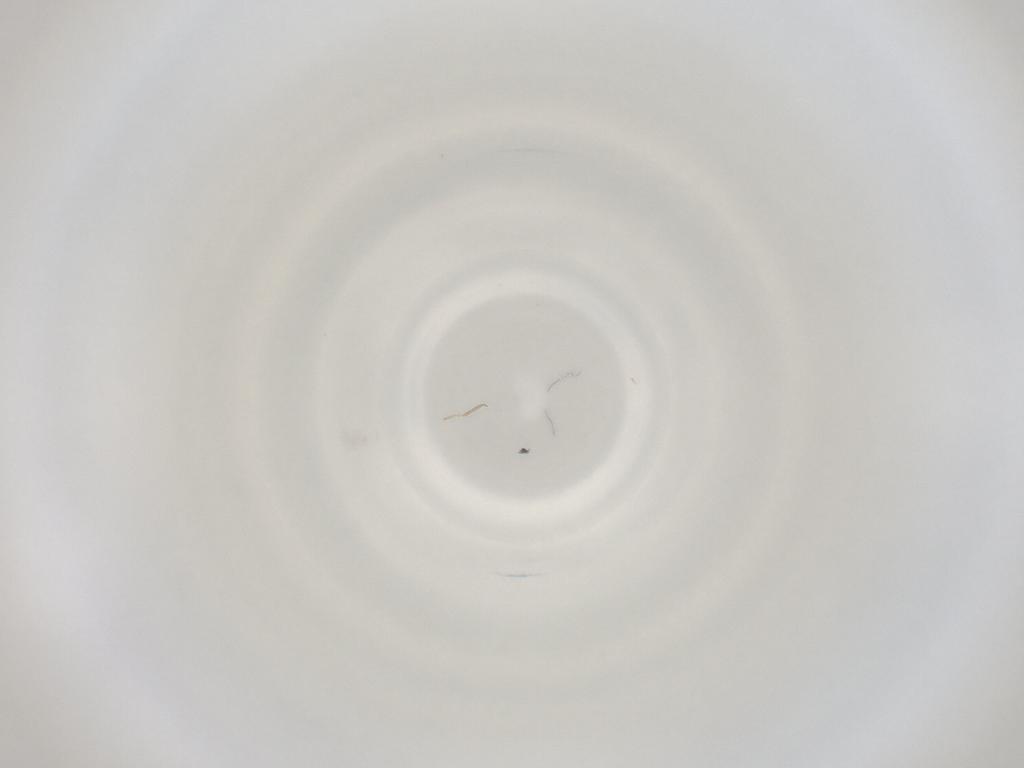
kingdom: Animalia
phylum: Arthropoda
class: Insecta
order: Diptera
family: Cecidomyiidae
